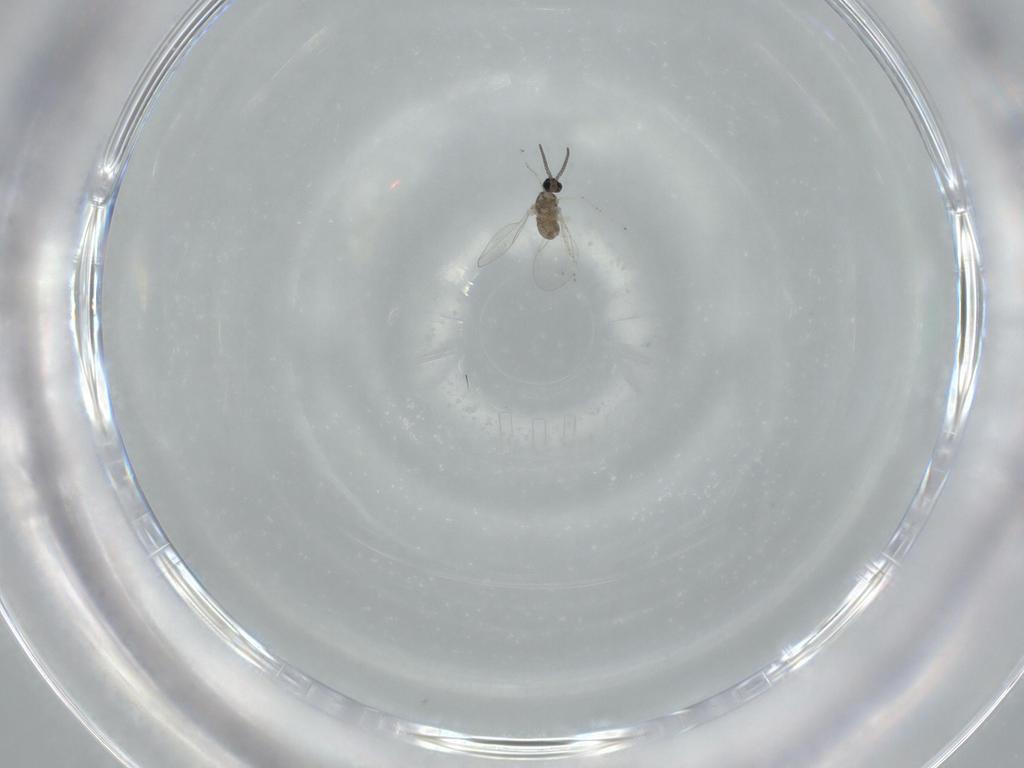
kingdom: Animalia
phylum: Arthropoda
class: Insecta
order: Diptera
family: Cecidomyiidae
